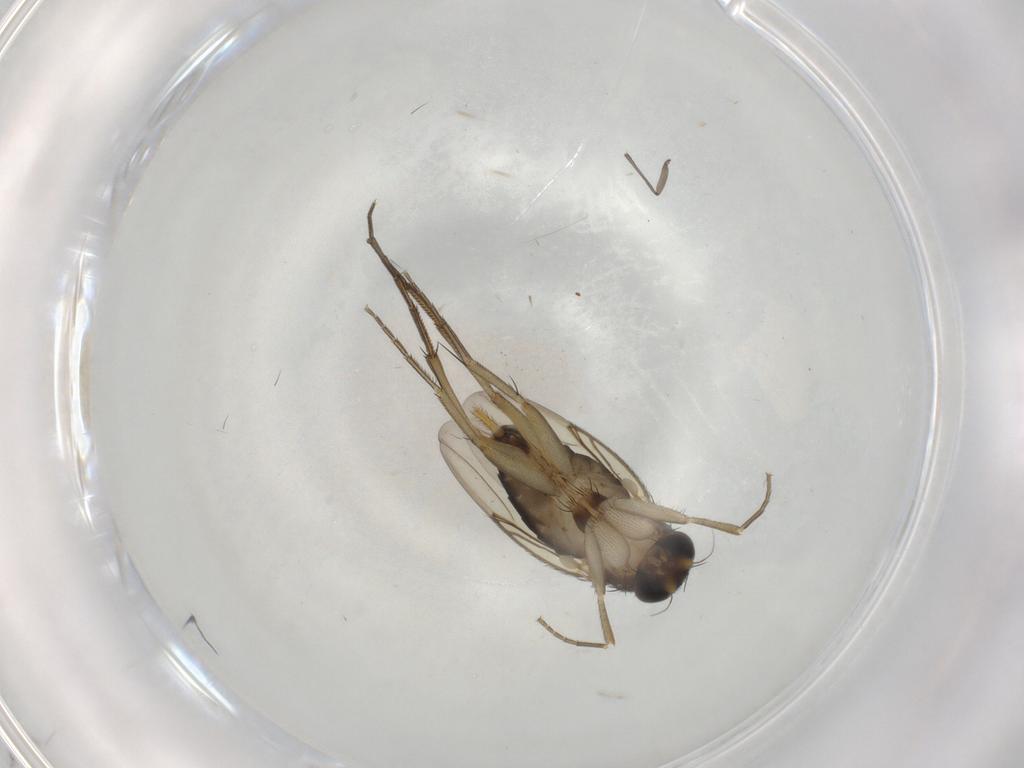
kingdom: Animalia
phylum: Arthropoda
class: Insecta
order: Diptera
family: Phoridae
